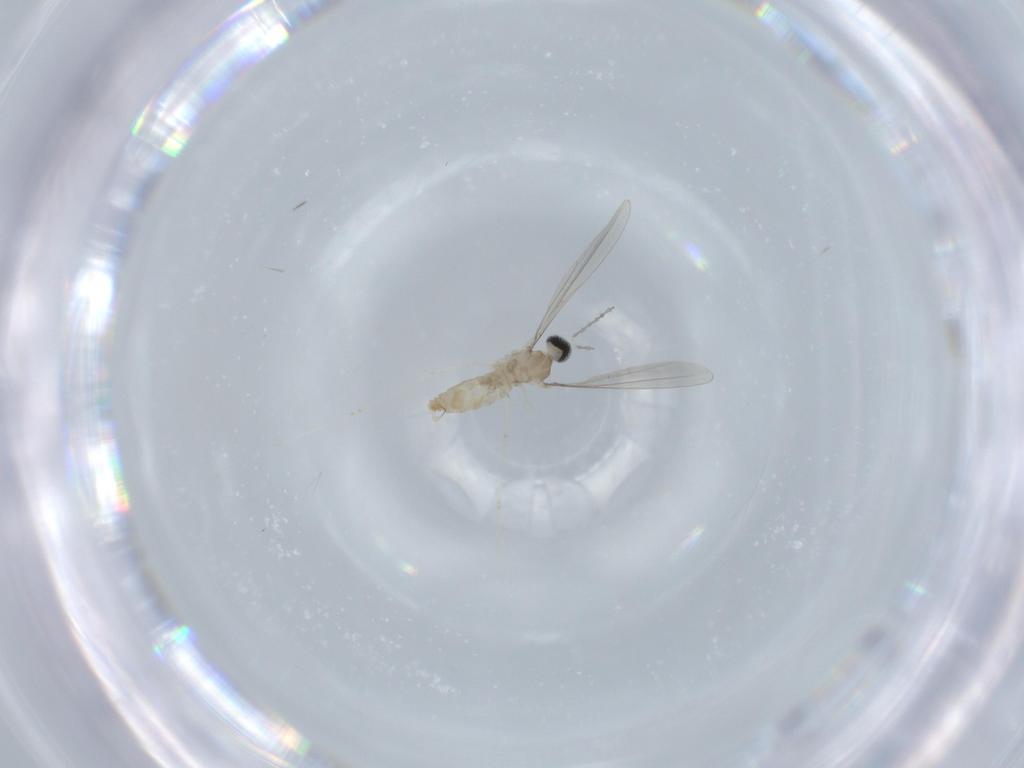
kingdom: Animalia
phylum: Arthropoda
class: Insecta
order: Diptera
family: Cecidomyiidae
